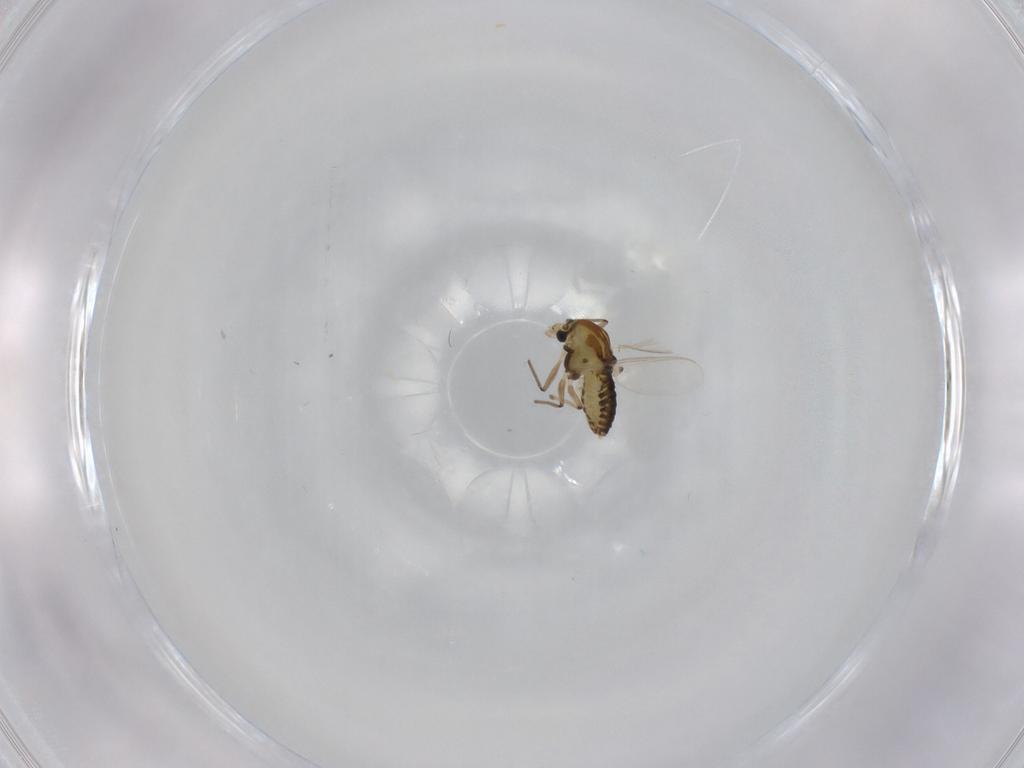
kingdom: Animalia
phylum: Arthropoda
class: Insecta
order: Diptera
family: Chironomidae
